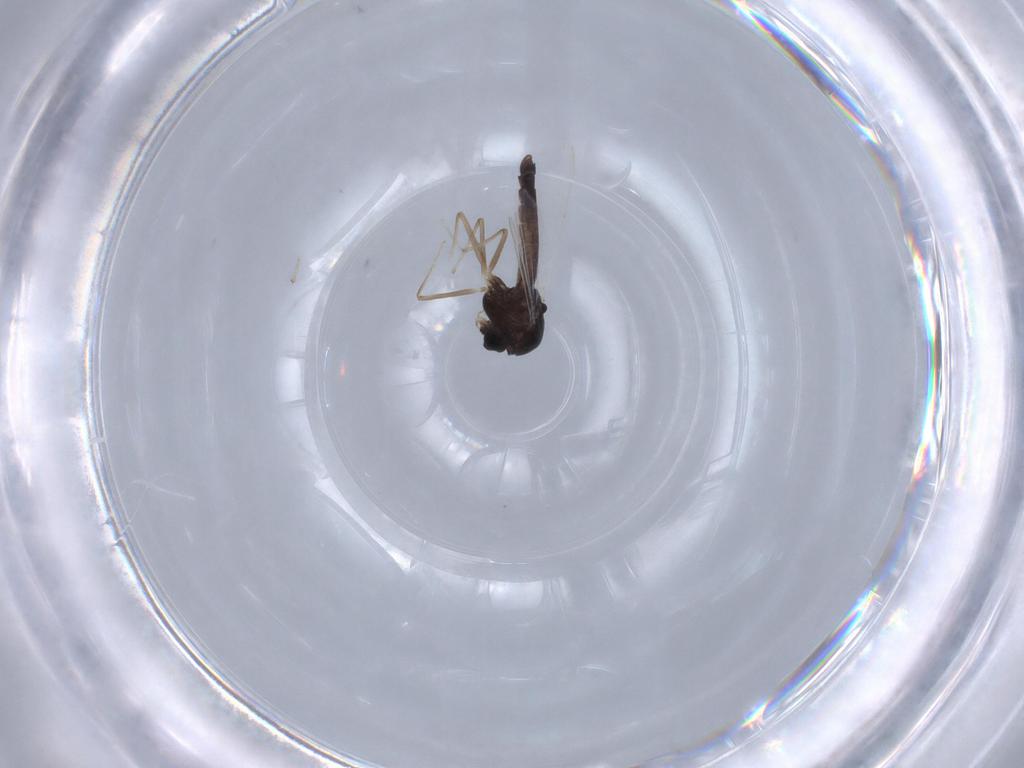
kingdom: Animalia
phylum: Arthropoda
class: Insecta
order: Diptera
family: Chironomidae
